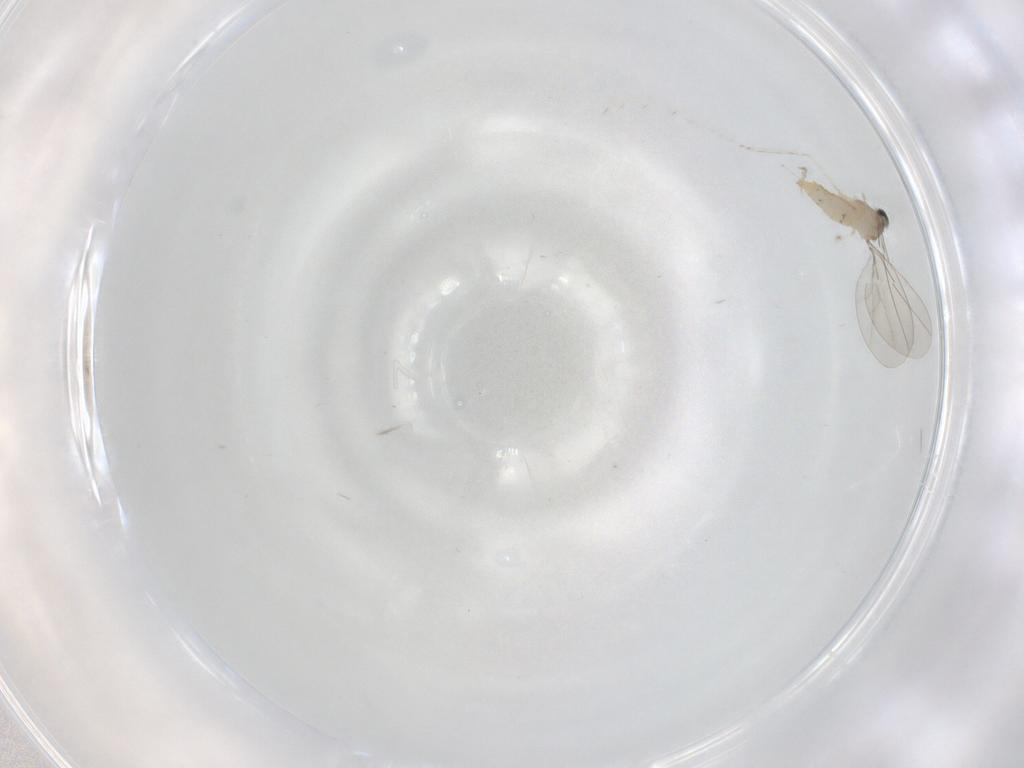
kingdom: Animalia
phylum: Arthropoda
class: Insecta
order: Diptera
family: Cecidomyiidae
